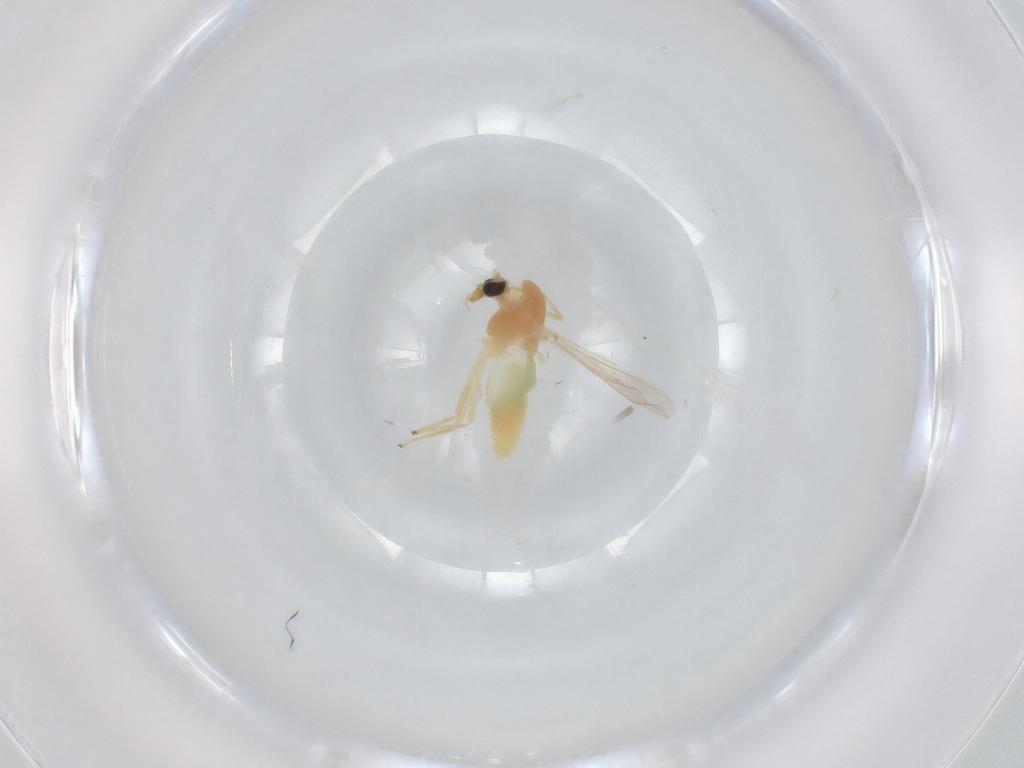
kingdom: Animalia
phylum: Arthropoda
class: Insecta
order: Diptera
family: Chironomidae
